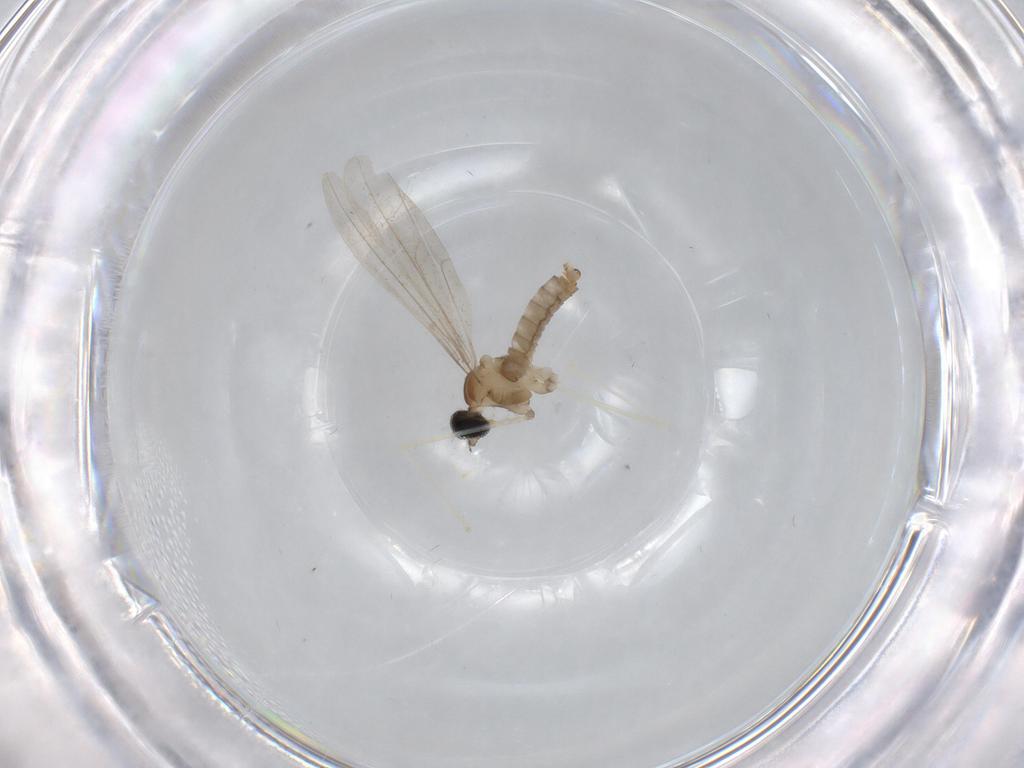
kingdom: Animalia
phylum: Arthropoda
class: Insecta
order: Diptera
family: Cecidomyiidae
